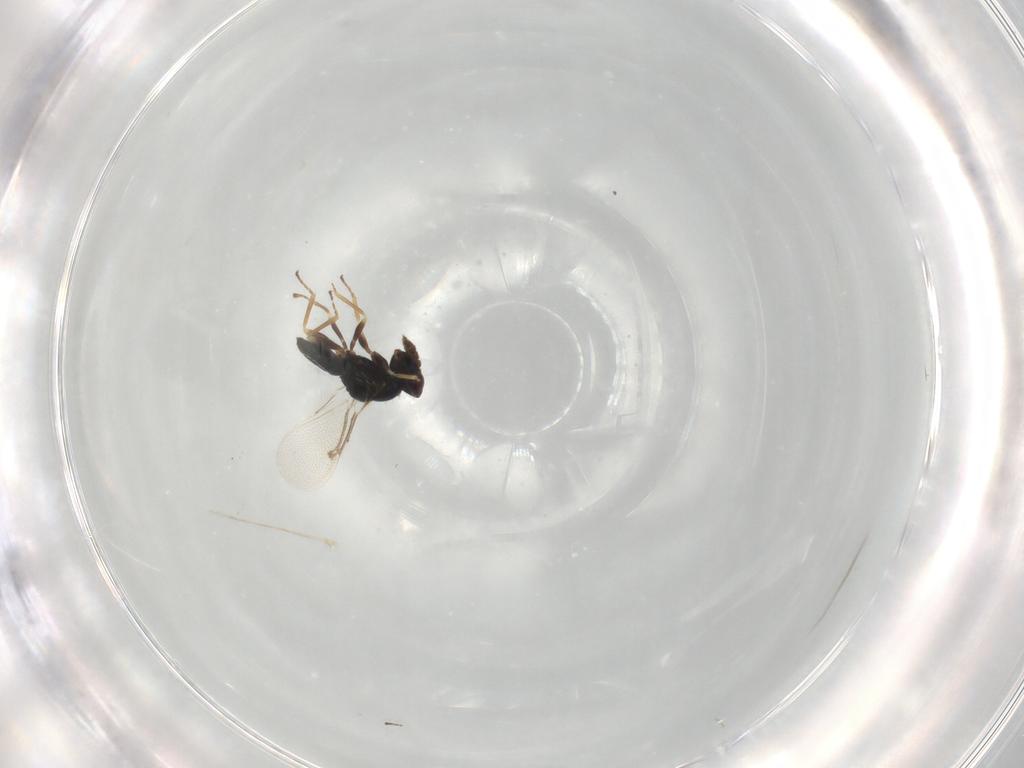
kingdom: Animalia
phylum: Arthropoda
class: Insecta
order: Hymenoptera
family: Eulophidae
